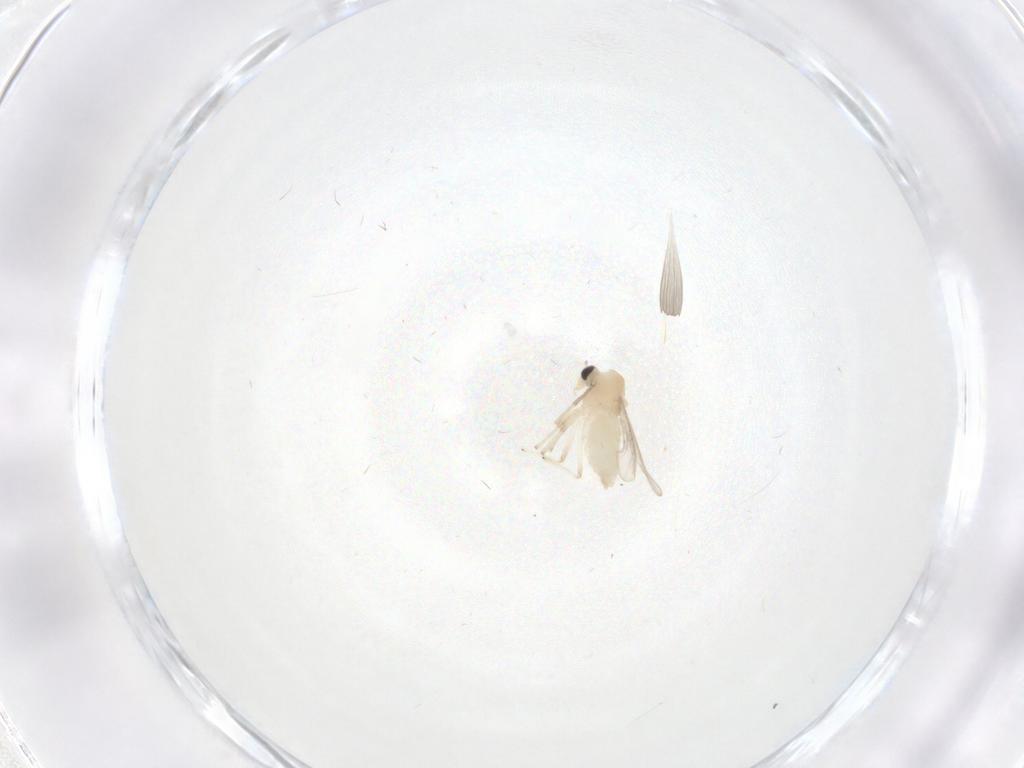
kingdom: Animalia
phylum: Arthropoda
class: Insecta
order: Diptera
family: Chironomidae
